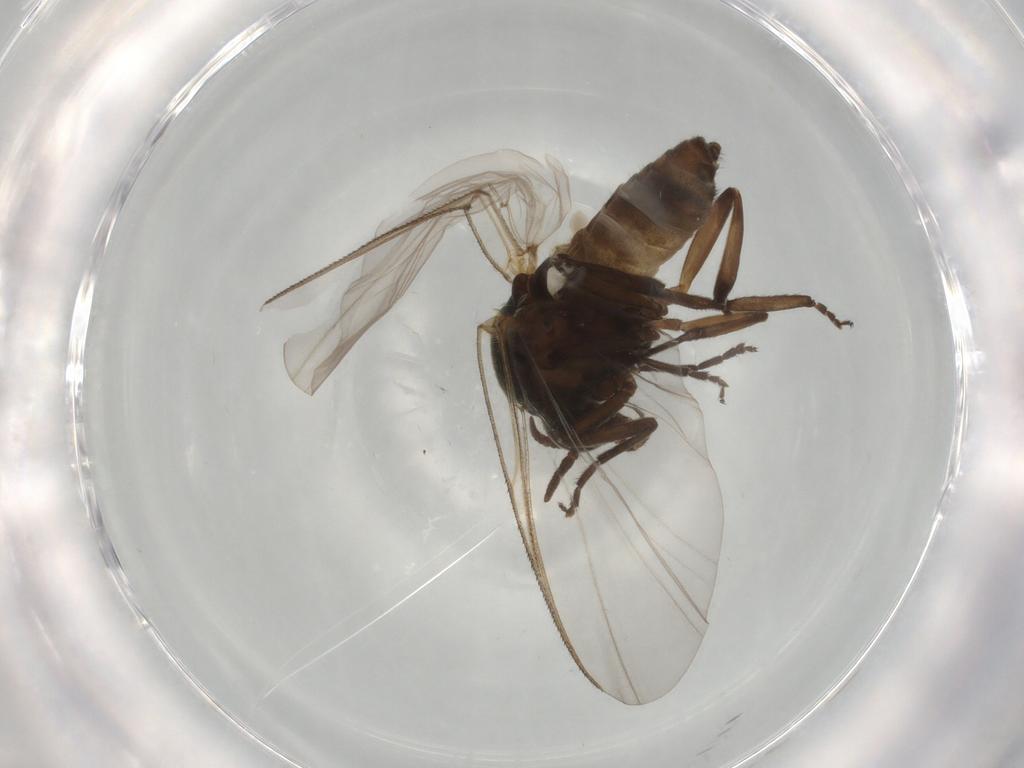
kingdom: Animalia
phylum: Arthropoda
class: Insecta
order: Diptera
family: Simuliidae
